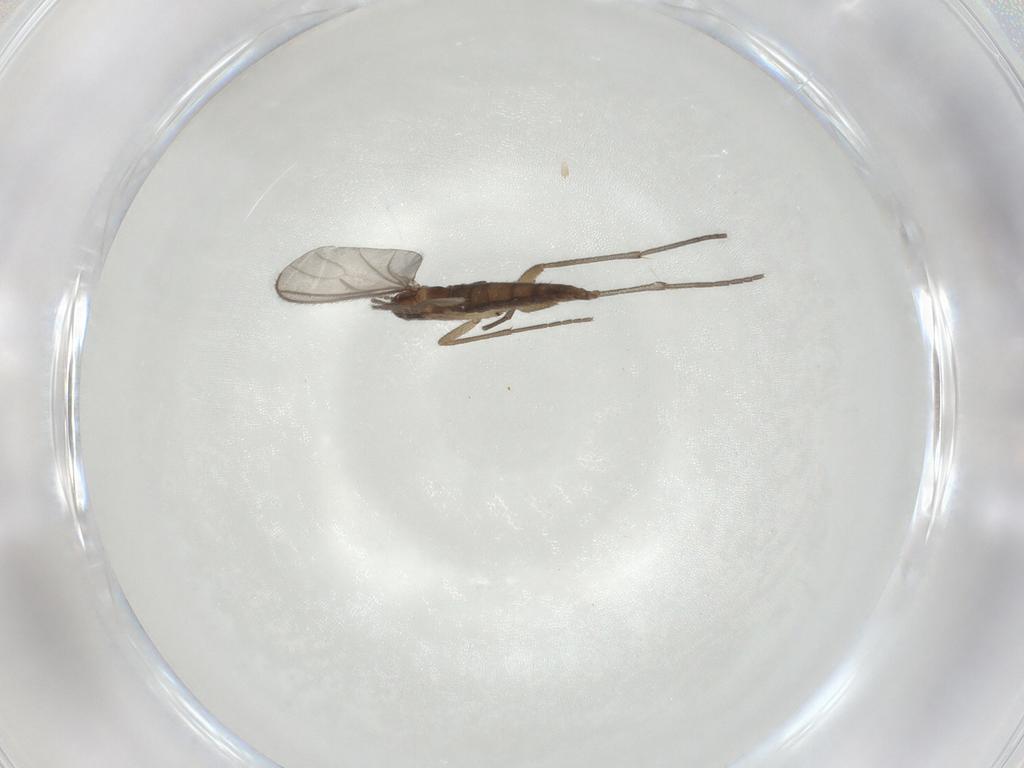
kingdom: Animalia
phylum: Arthropoda
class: Insecta
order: Diptera
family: Sciaridae
